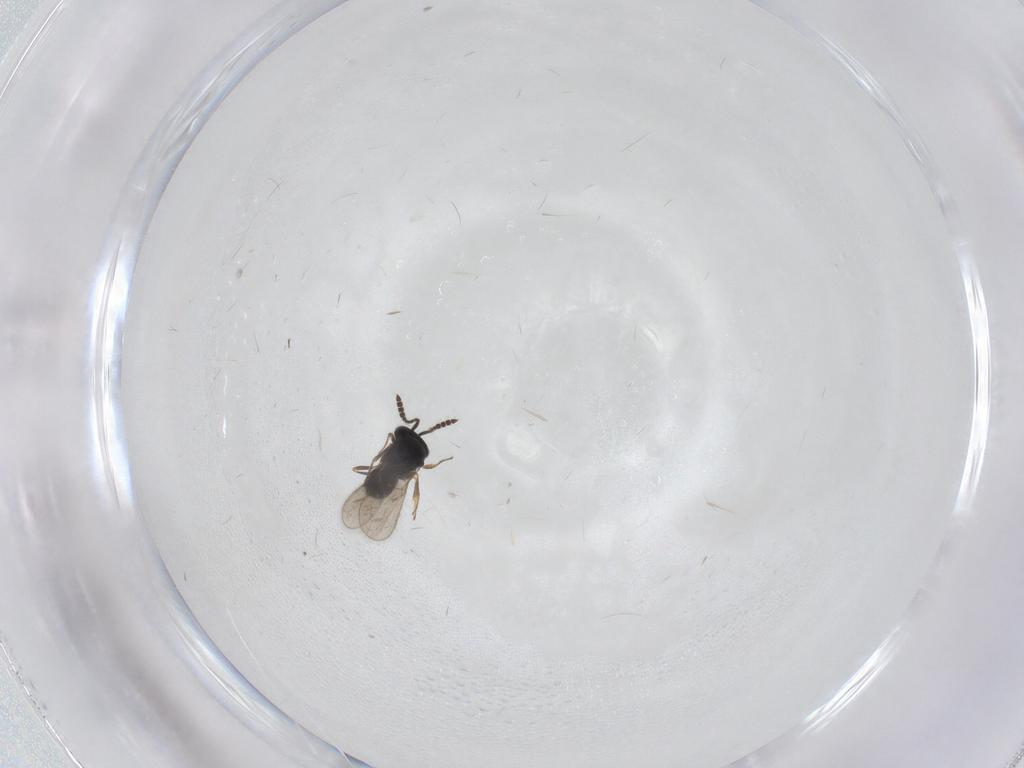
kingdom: Animalia
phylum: Arthropoda
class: Insecta
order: Hymenoptera
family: Scelionidae
